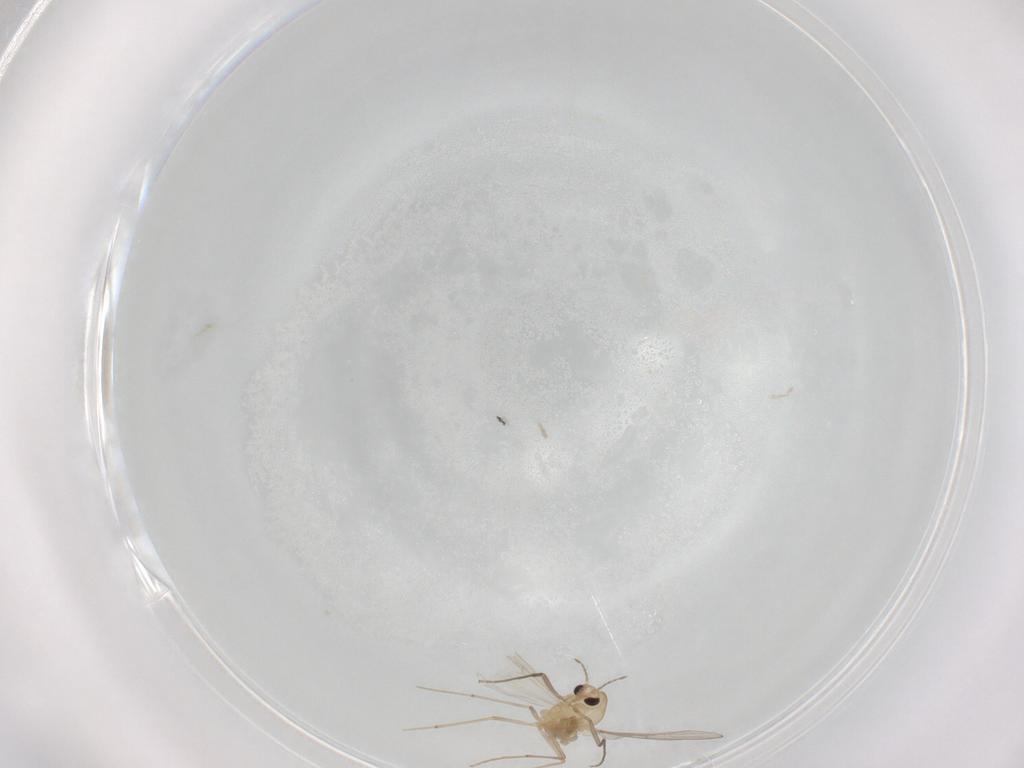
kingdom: Animalia
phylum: Arthropoda
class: Insecta
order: Diptera
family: Chironomidae
